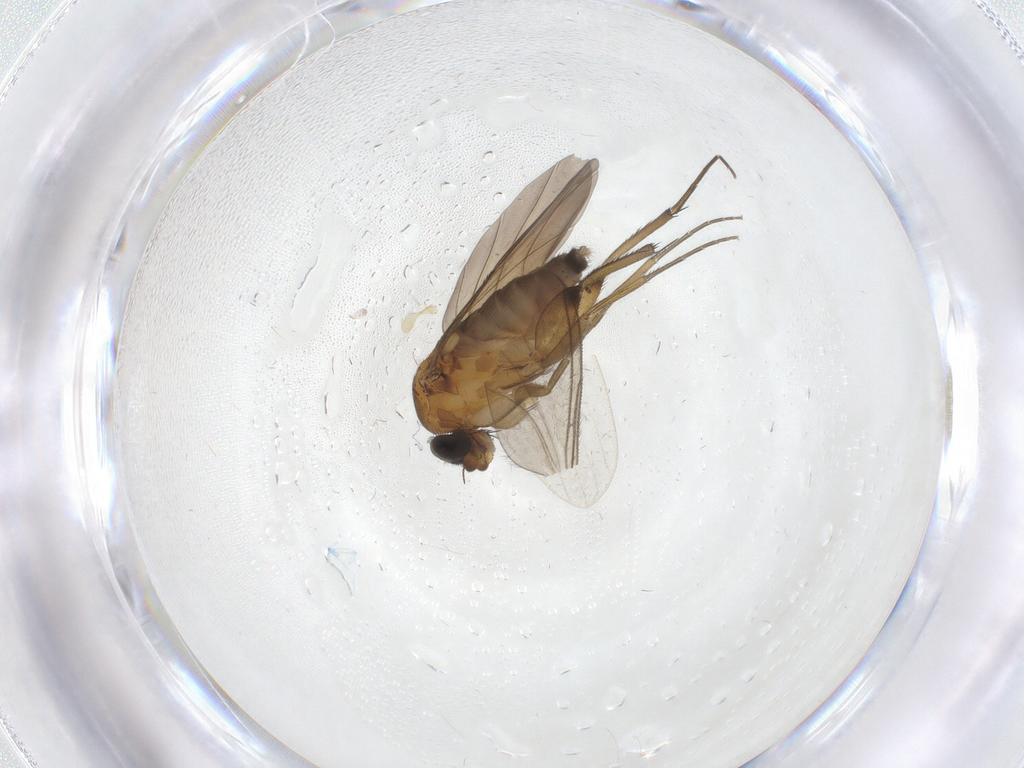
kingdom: Animalia
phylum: Arthropoda
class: Insecta
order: Diptera
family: Phoridae
